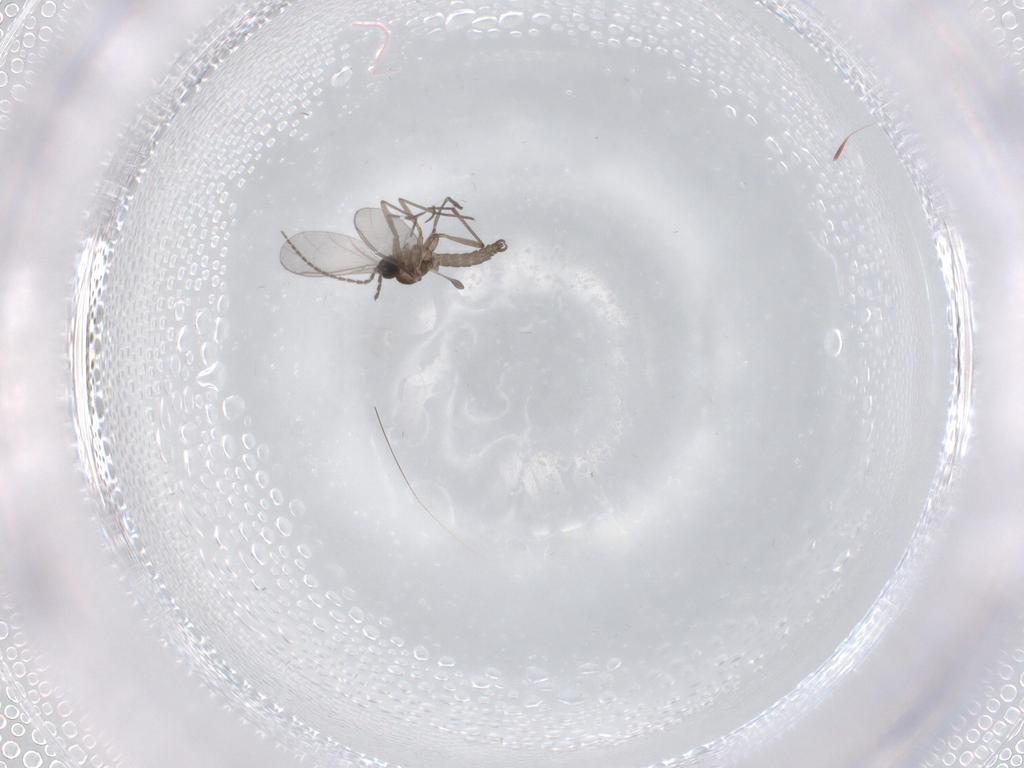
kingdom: Animalia
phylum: Arthropoda
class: Insecta
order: Diptera
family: Sciaridae
